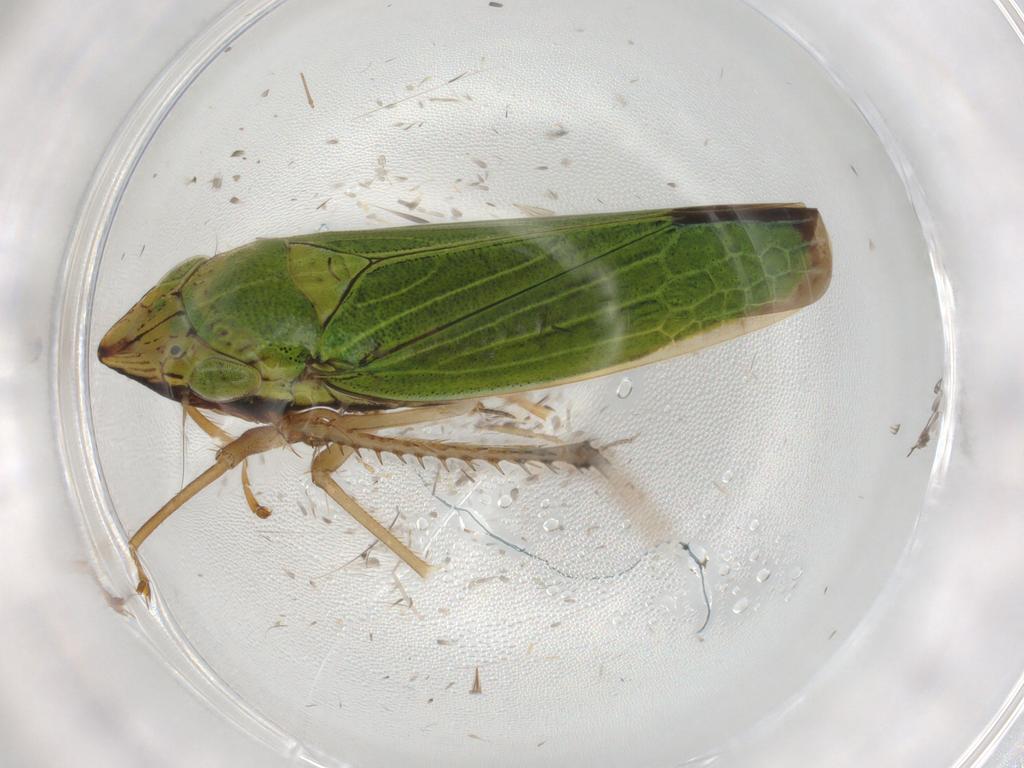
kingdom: Animalia
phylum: Arthropoda
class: Insecta
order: Hemiptera
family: Cicadellidae
